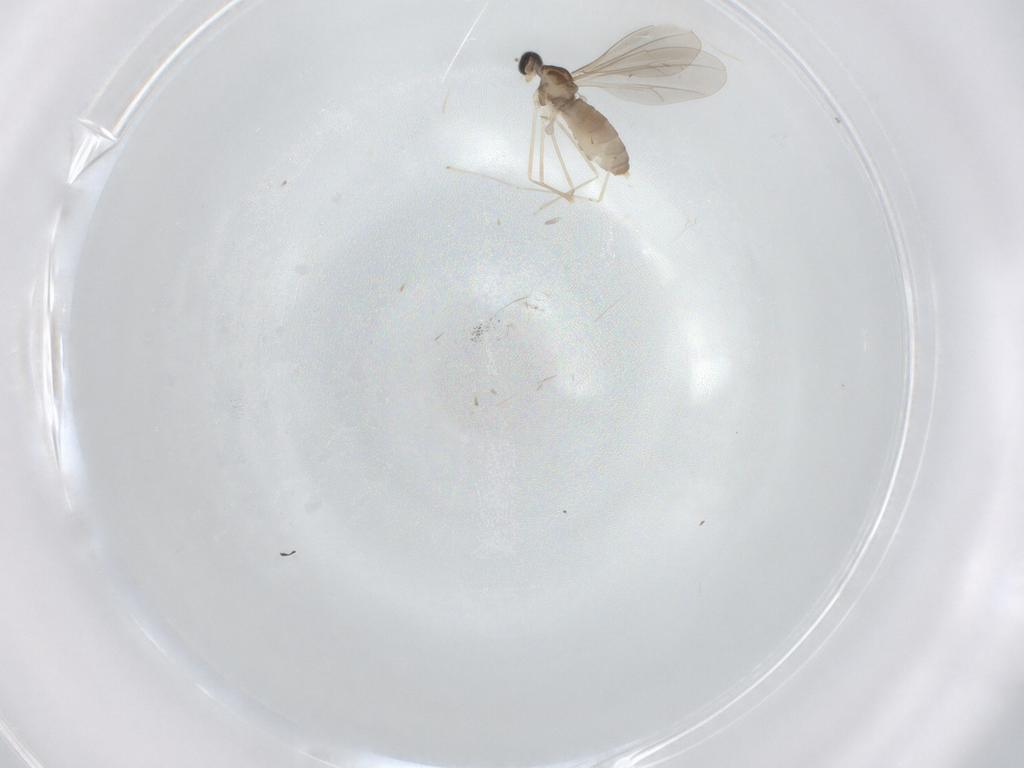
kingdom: Animalia
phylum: Arthropoda
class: Insecta
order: Diptera
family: Cecidomyiidae
